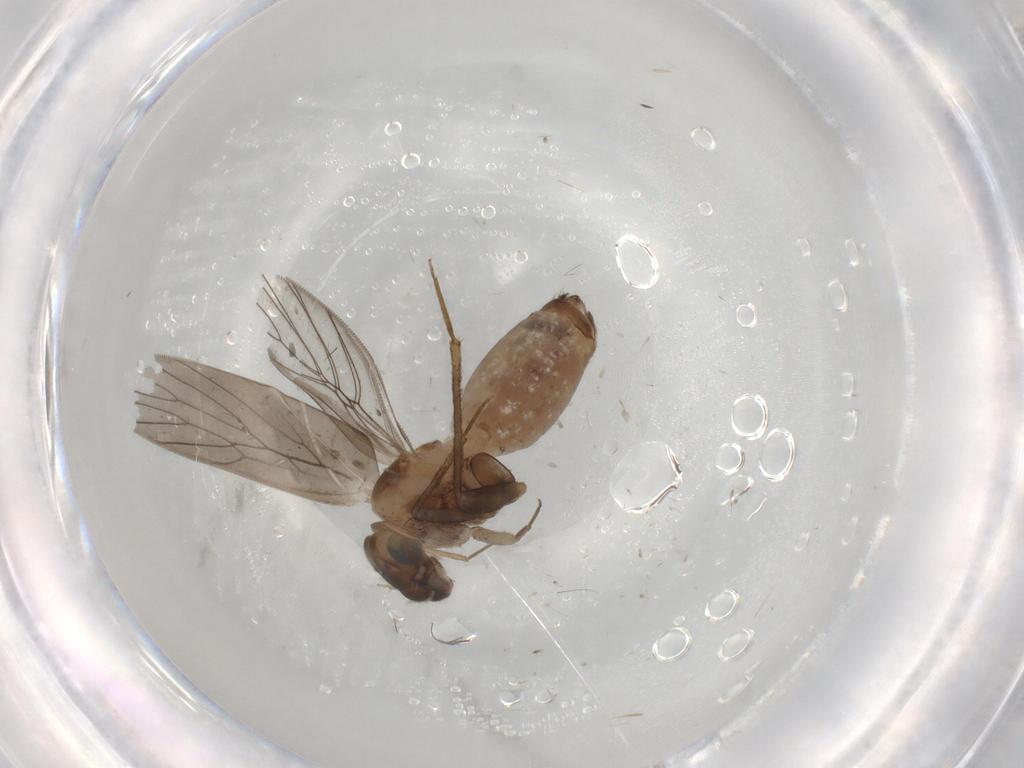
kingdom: Animalia
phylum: Arthropoda
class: Insecta
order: Psocodea
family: Lepidopsocidae
